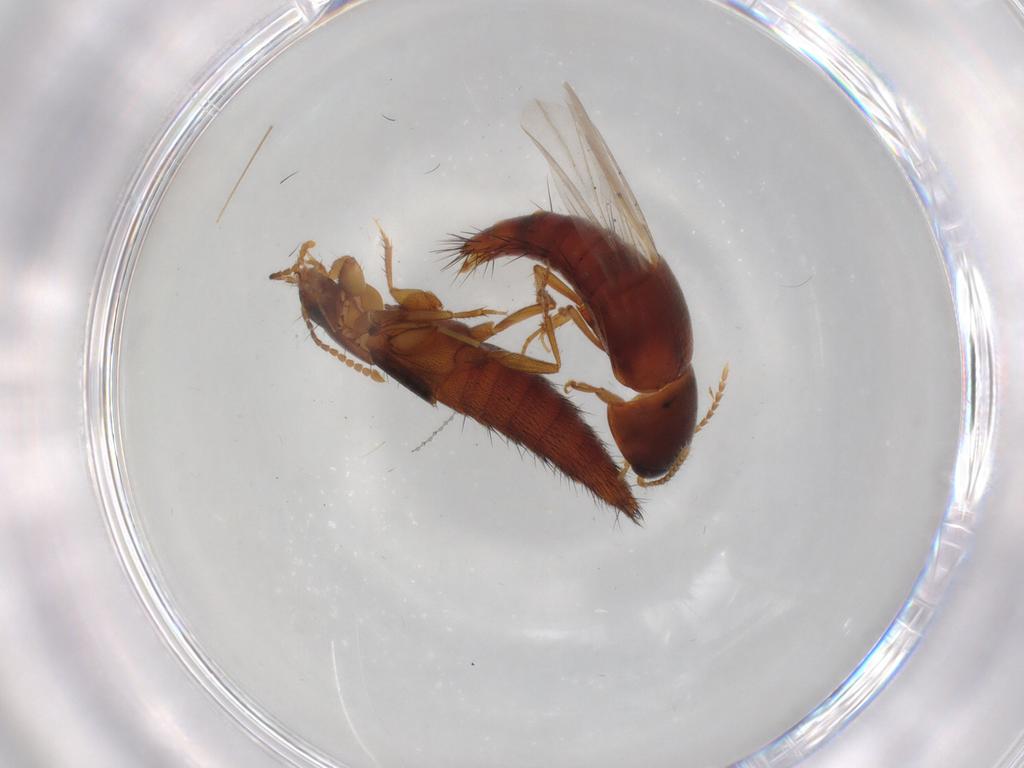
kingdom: Animalia
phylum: Arthropoda
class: Insecta
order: Coleoptera
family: Staphylinidae
